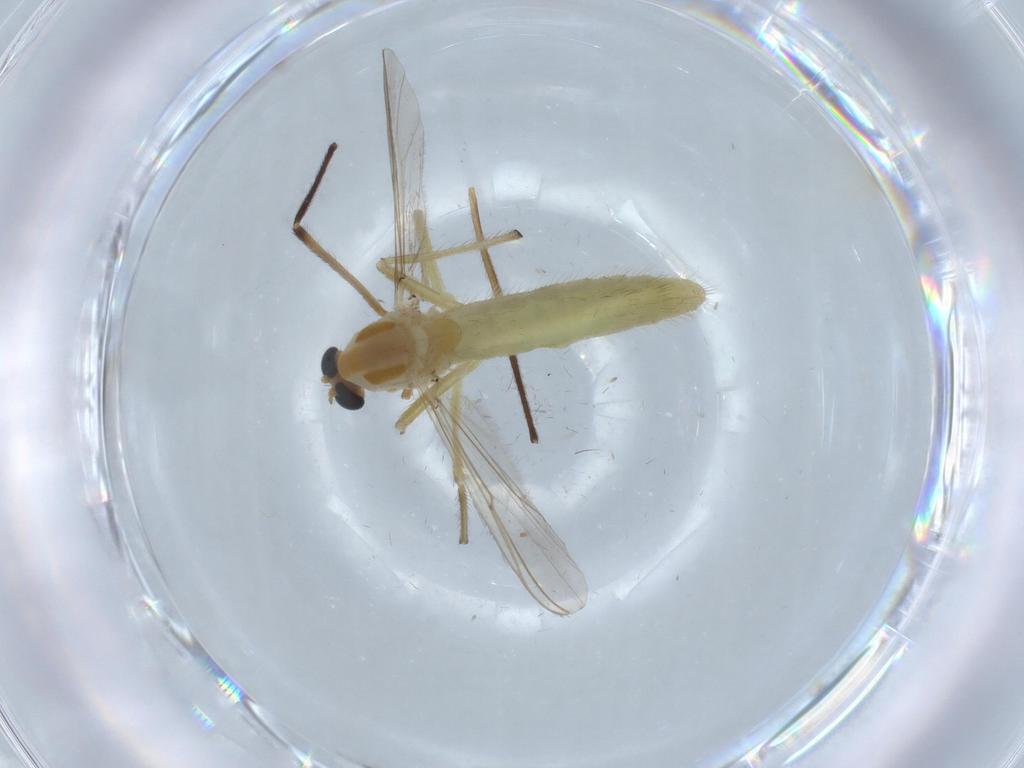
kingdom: Animalia
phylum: Arthropoda
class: Insecta
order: Diptera
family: Chironomidae
